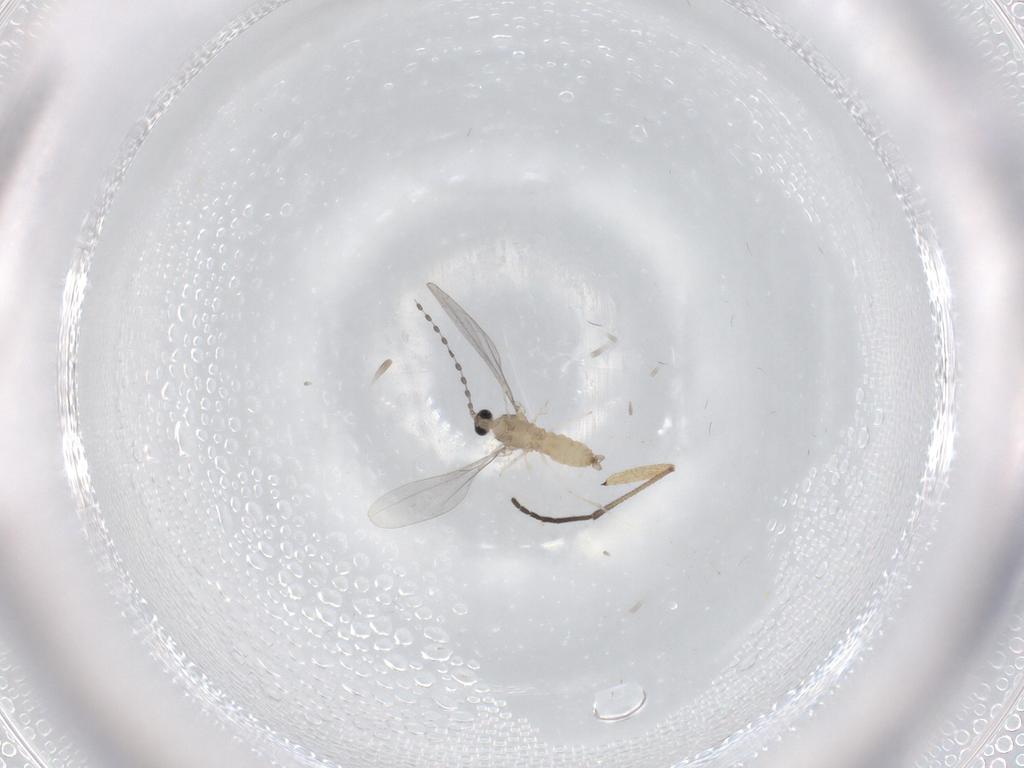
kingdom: Animalia
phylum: Arthropoda
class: Insecta
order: Diptera
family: Cecidomyiidae
